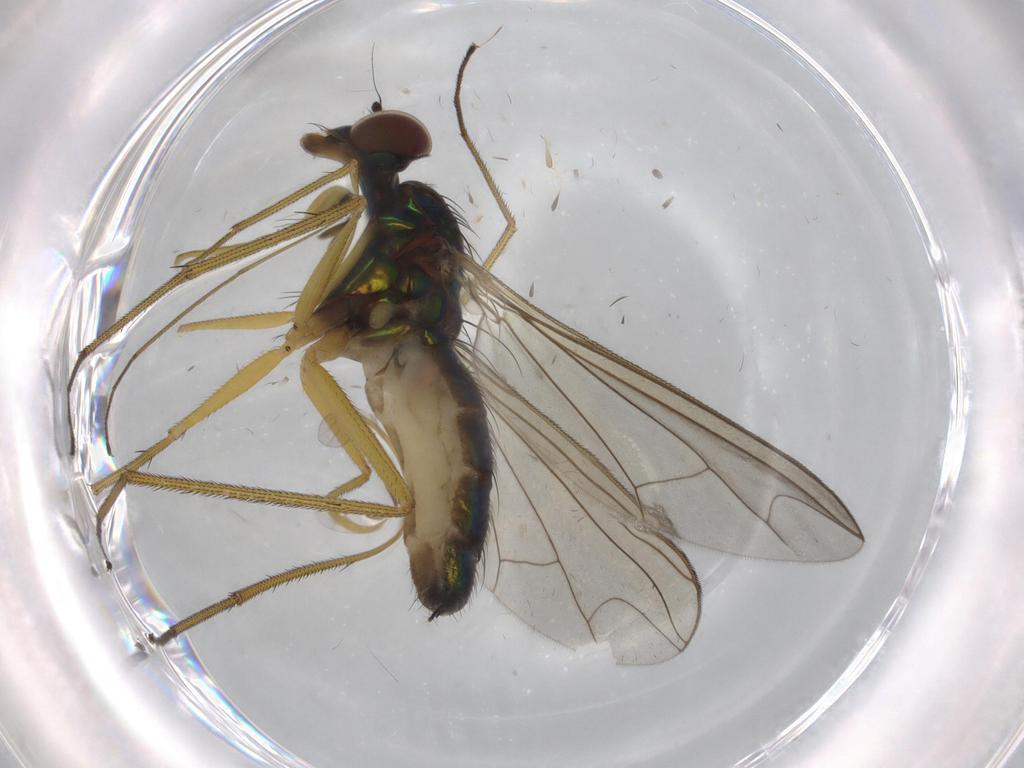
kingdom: Animalia
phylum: Arthropoda
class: Insecta
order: Diptera
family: Dolichopodidae
